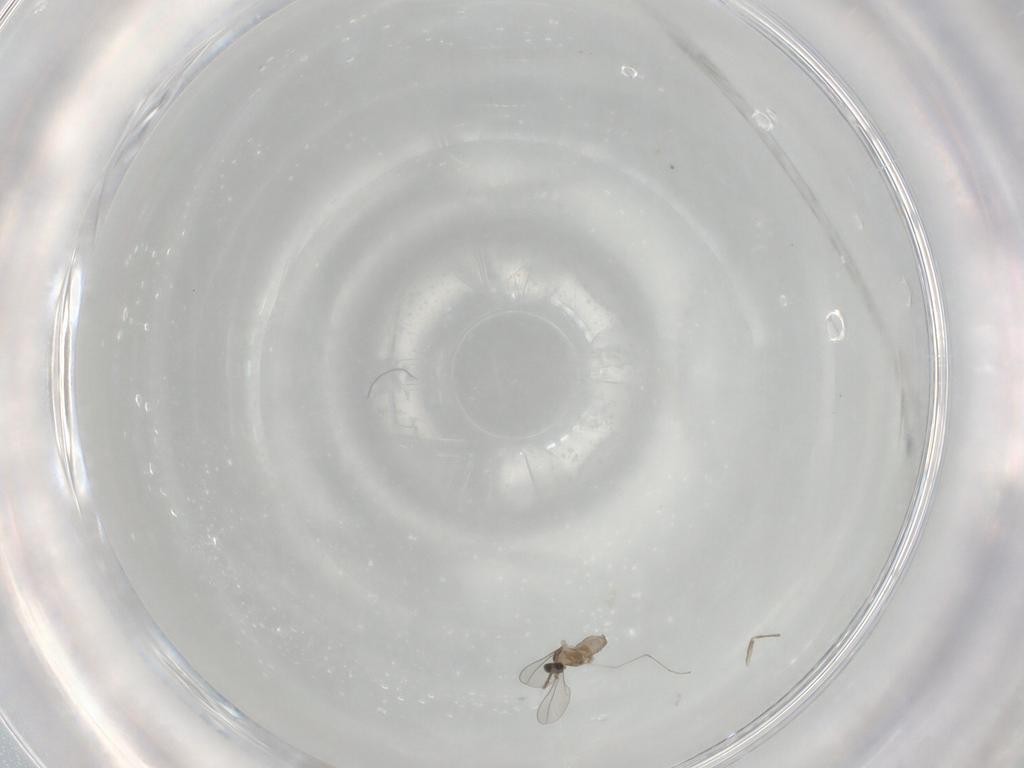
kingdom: Animalia
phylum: Arthropoda
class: Insecta
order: Diptera
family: Cecidomyiidae
